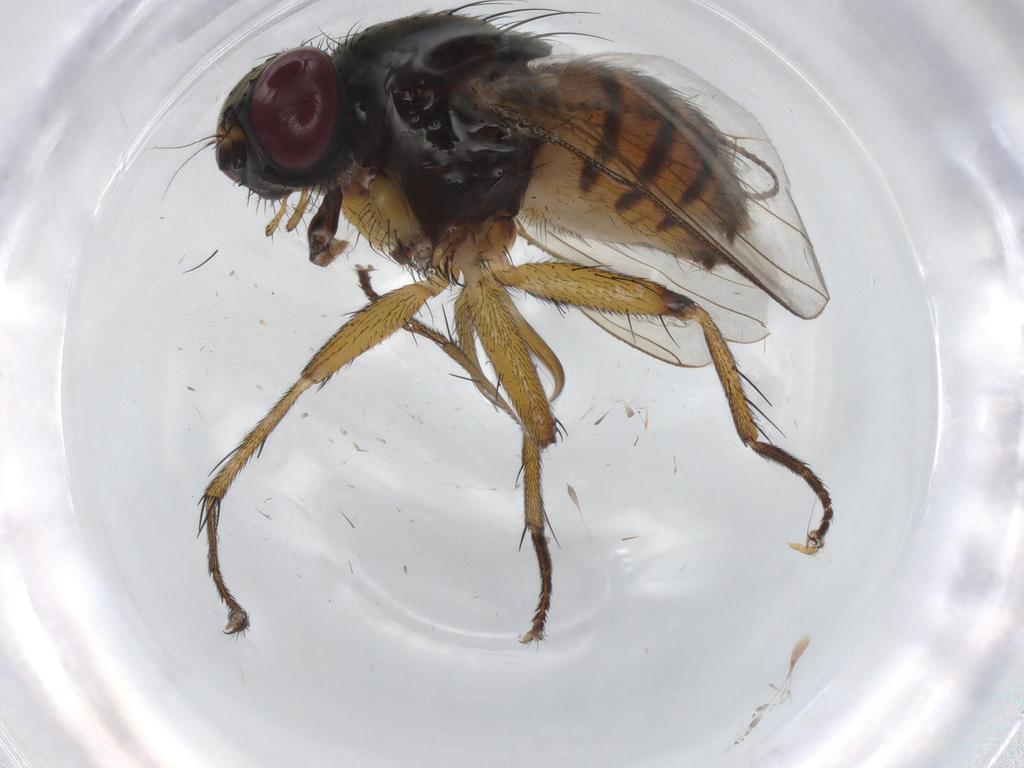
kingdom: Animalia
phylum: Arthropoda
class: Insecta
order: Diptera
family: Muscidae
